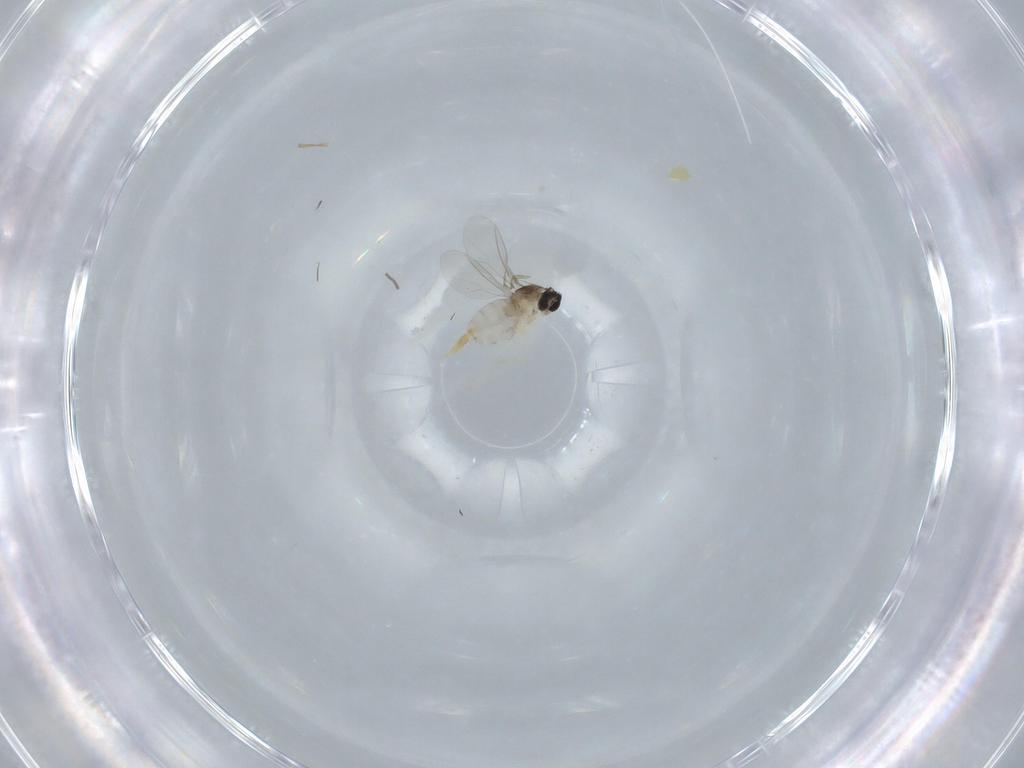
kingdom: Animalia
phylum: Arthropoda
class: Insecta
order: Diptera
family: Cecidomyiidae
